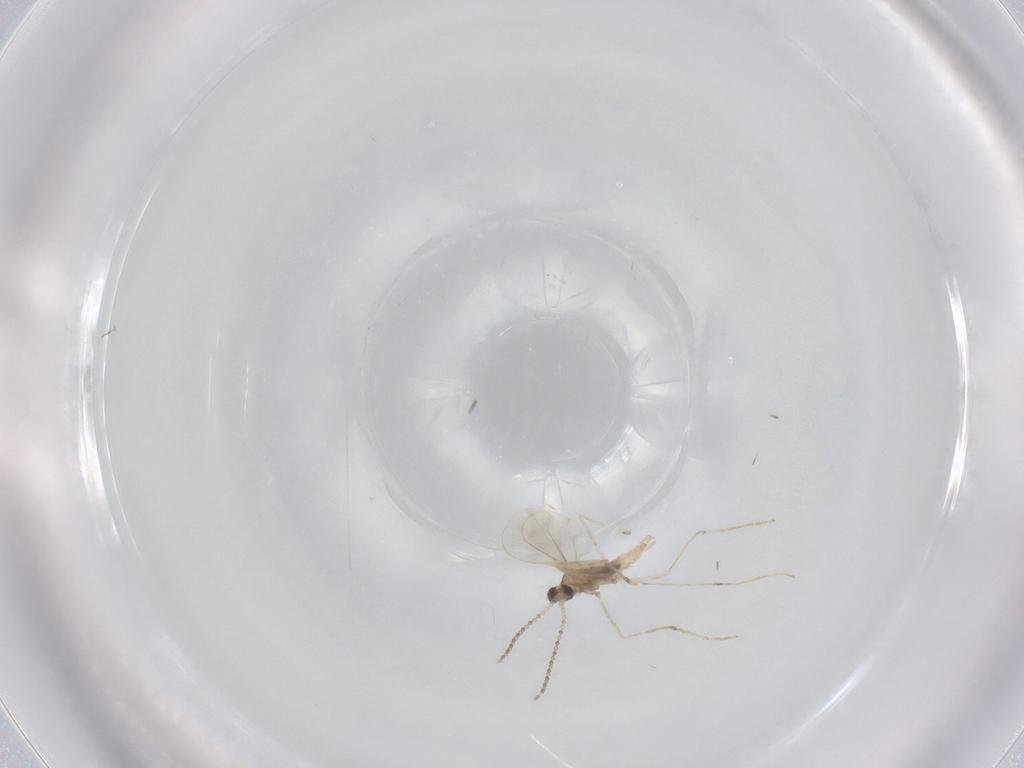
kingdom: Animalia
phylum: Arthropoda
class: Insecta
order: Diptera
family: Cecidomyiidae
